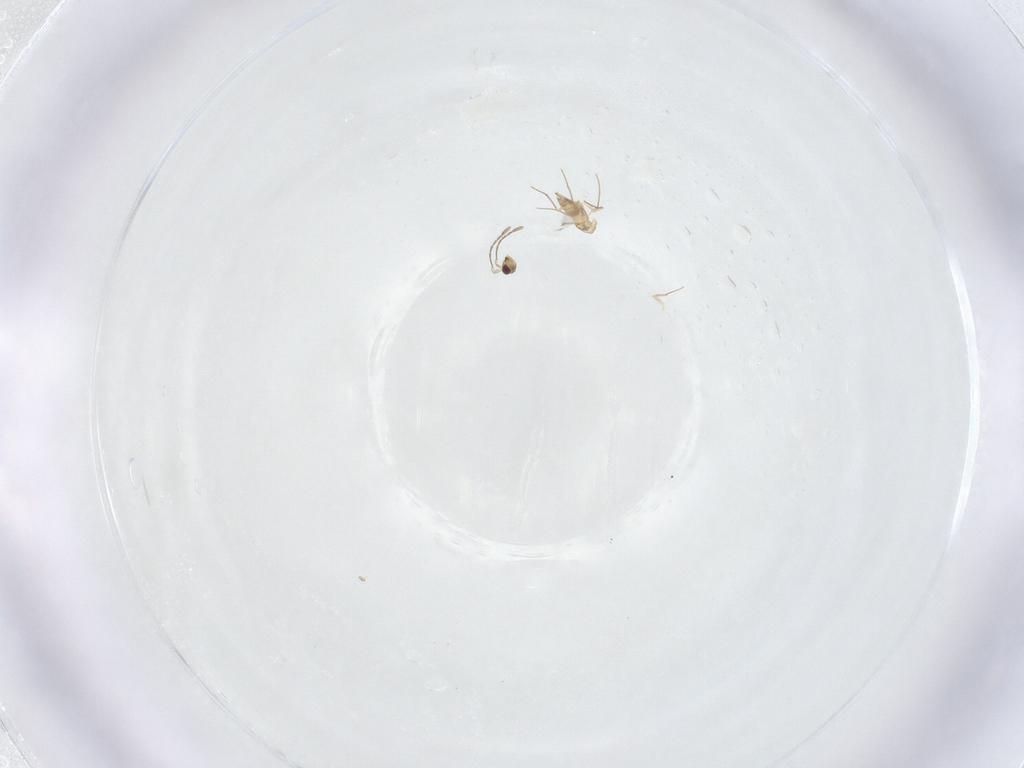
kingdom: Animalia
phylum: Arthropoda
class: Insecta
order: Hymenoptera
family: Mymaridae
